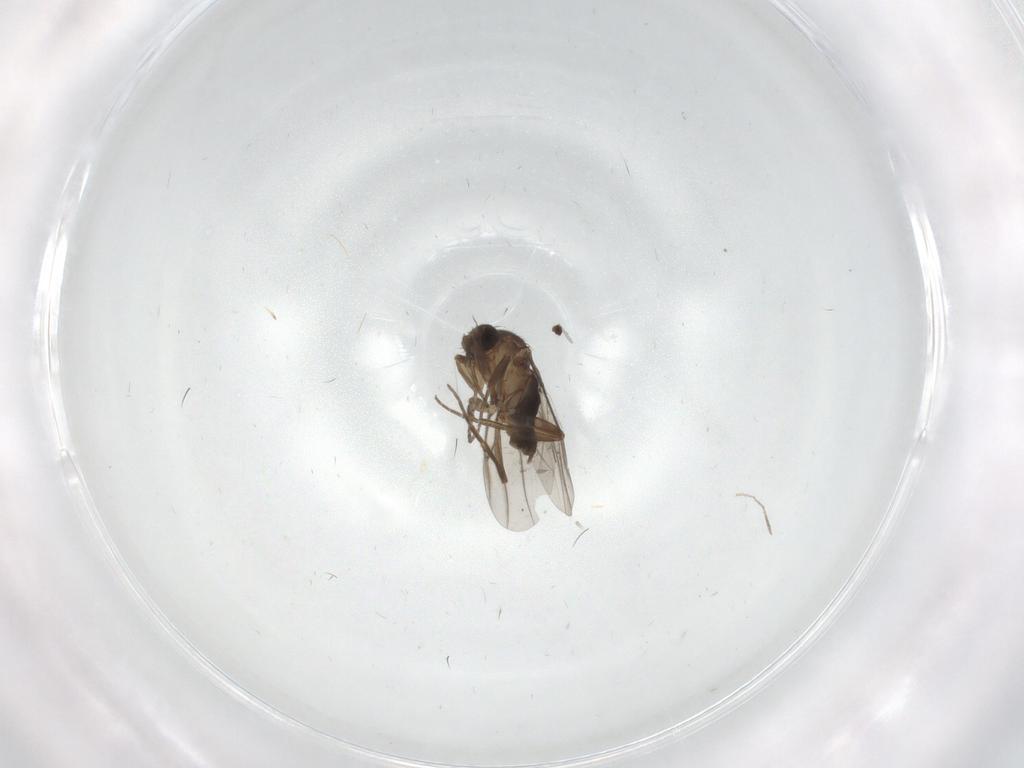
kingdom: Animalia
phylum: Arthropoda
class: Insecta
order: Diptera
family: Phoridae
